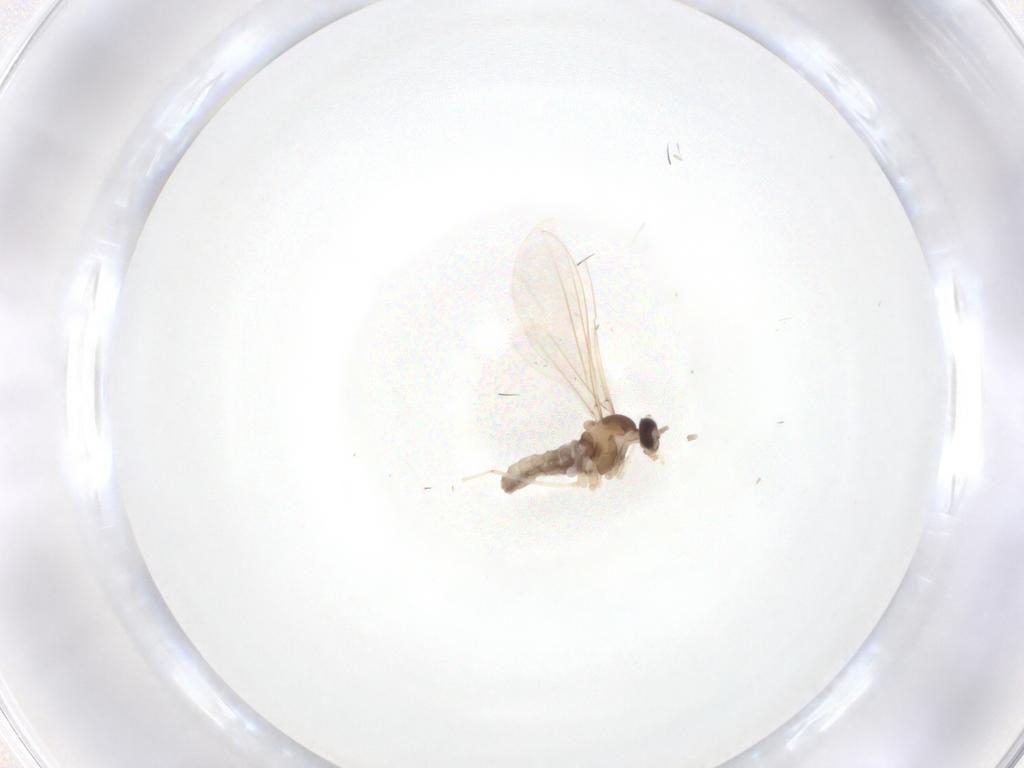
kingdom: Animalia
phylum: Arthropoda
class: Insecta
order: Diptera
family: Cecidomyiidae
